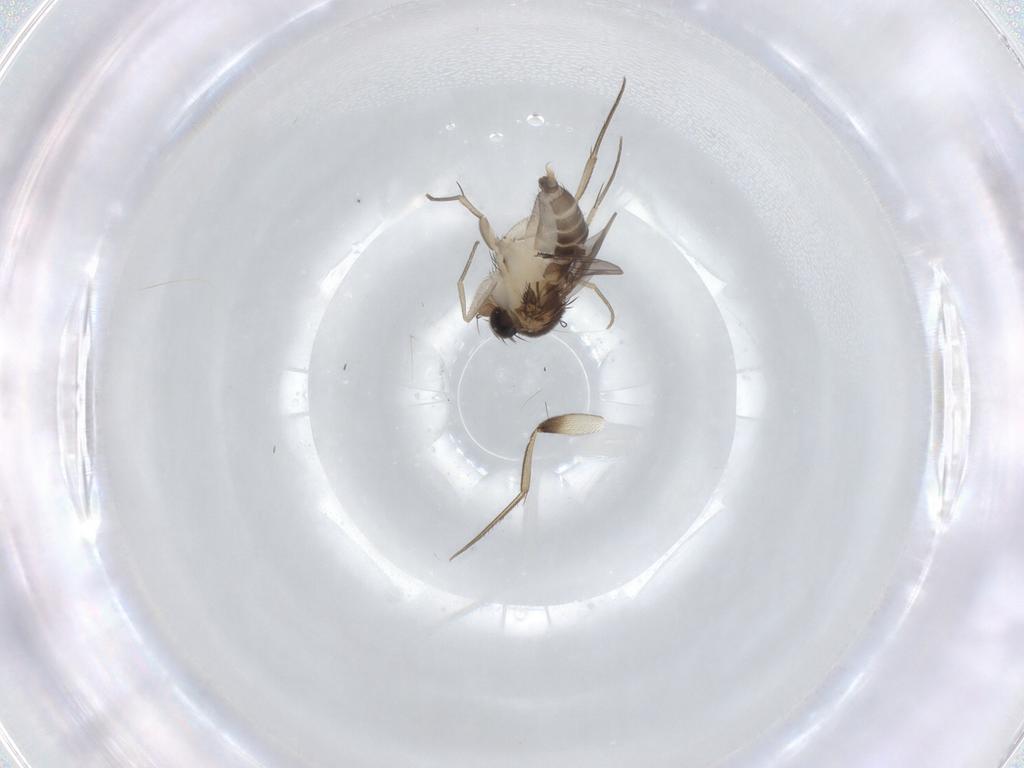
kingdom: Animalia
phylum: Arthropoda
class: Insecta
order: Diptera
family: Phoridae
